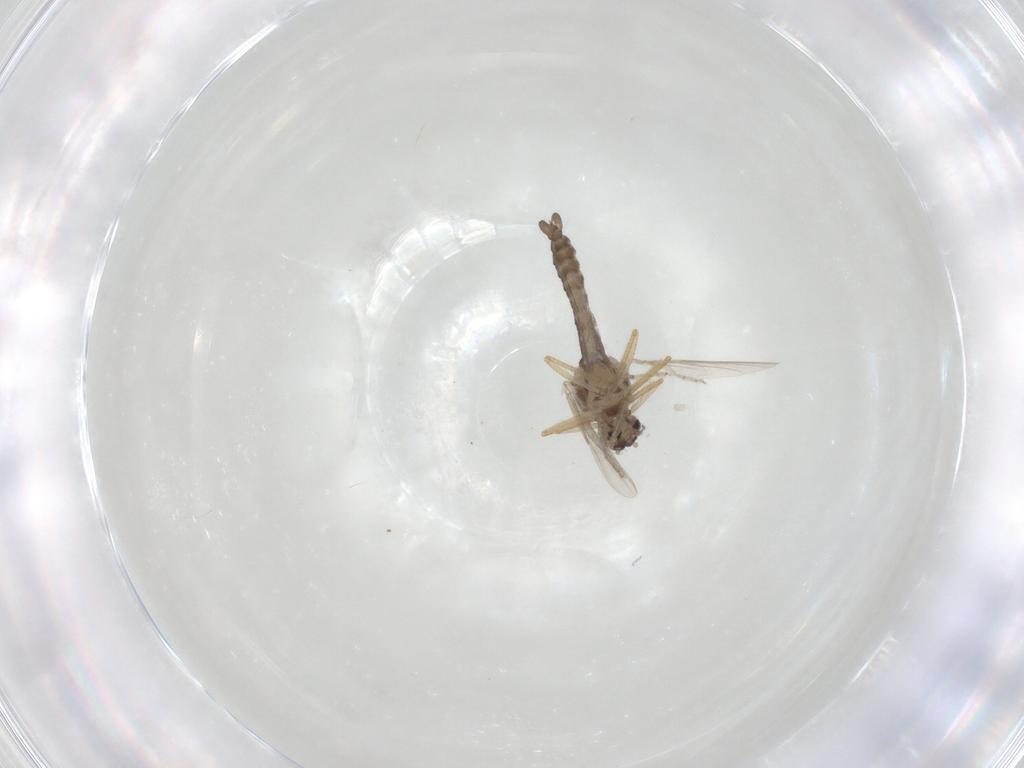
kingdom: Animalia
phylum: Arthropoda
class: Insecta
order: Diptera
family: Ceratopogonidae
